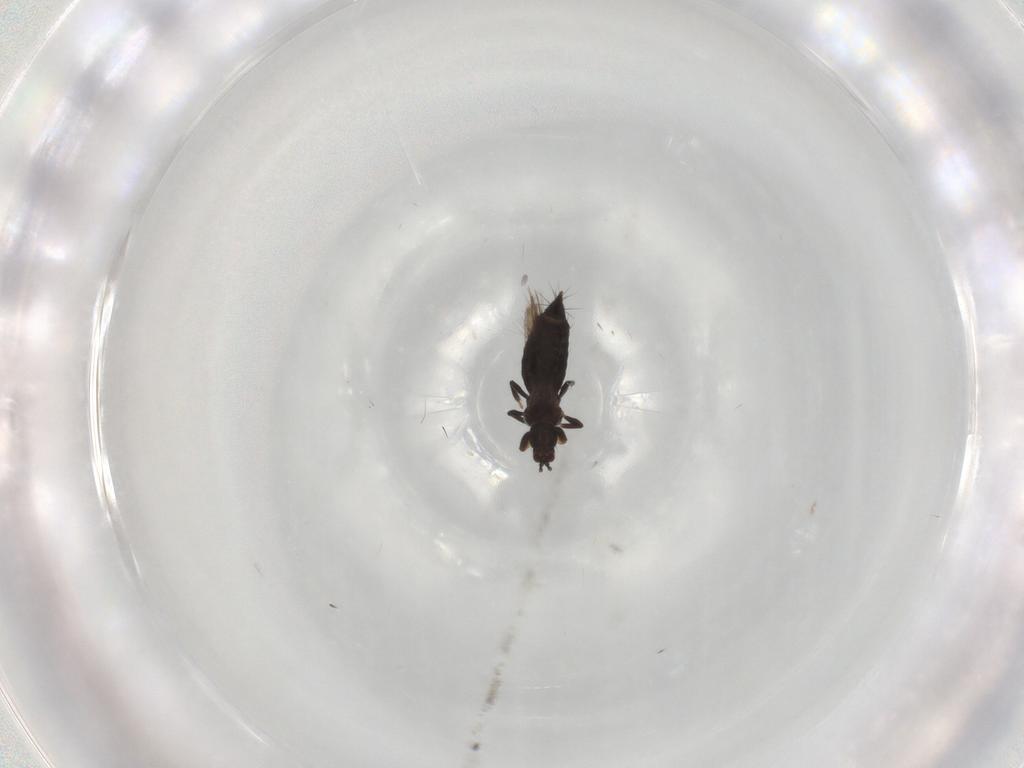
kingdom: Animalia
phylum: Arthropoda
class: Insecta
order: Thysanoptera
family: Thripidae
